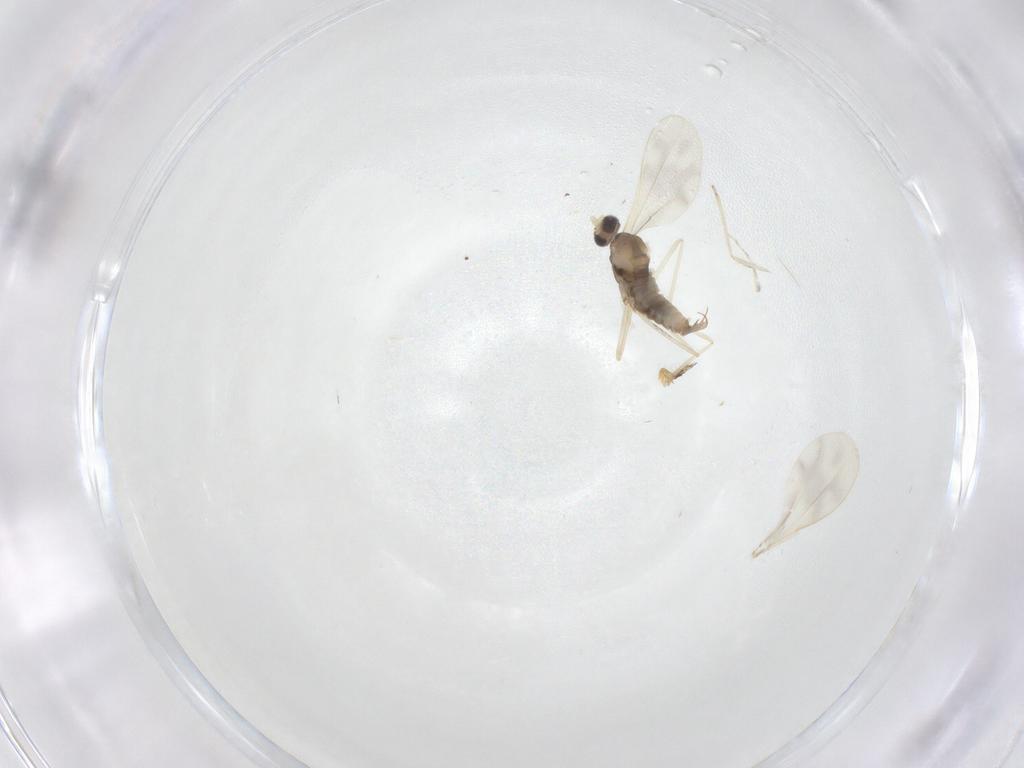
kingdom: Animalia
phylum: Arthropoda
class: Insecta
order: Diptera
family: Cecidomyiidae
